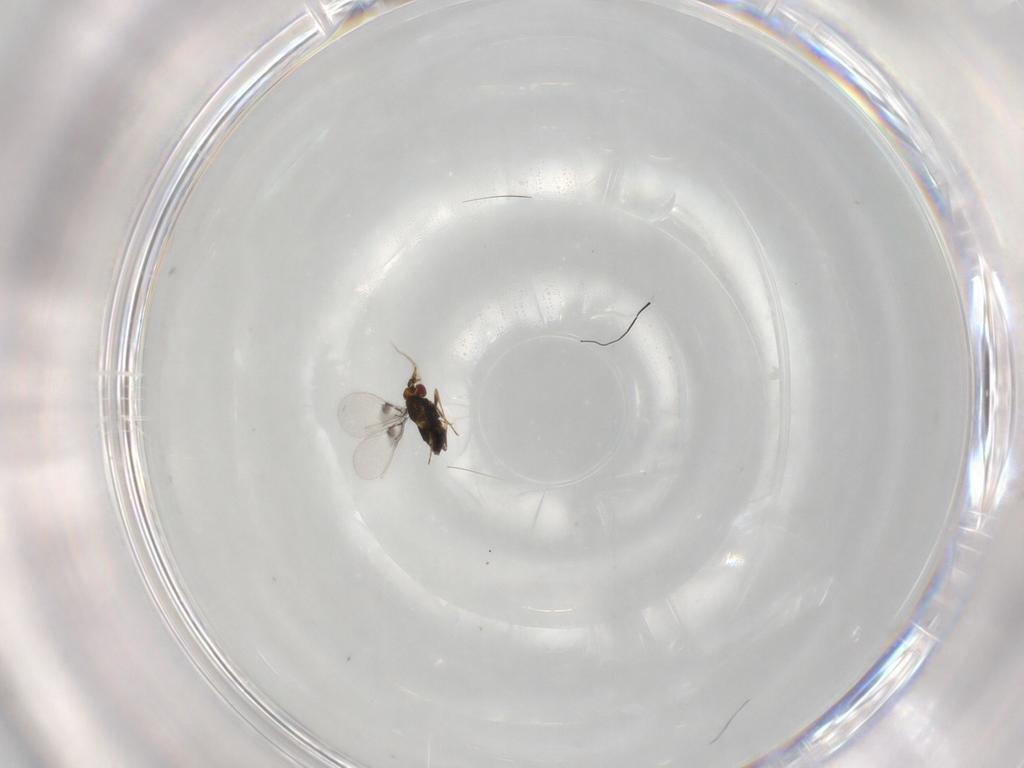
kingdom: Animalia
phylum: Arthropoda
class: Insecta
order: Hymenoptera
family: Trichogrammatidae
